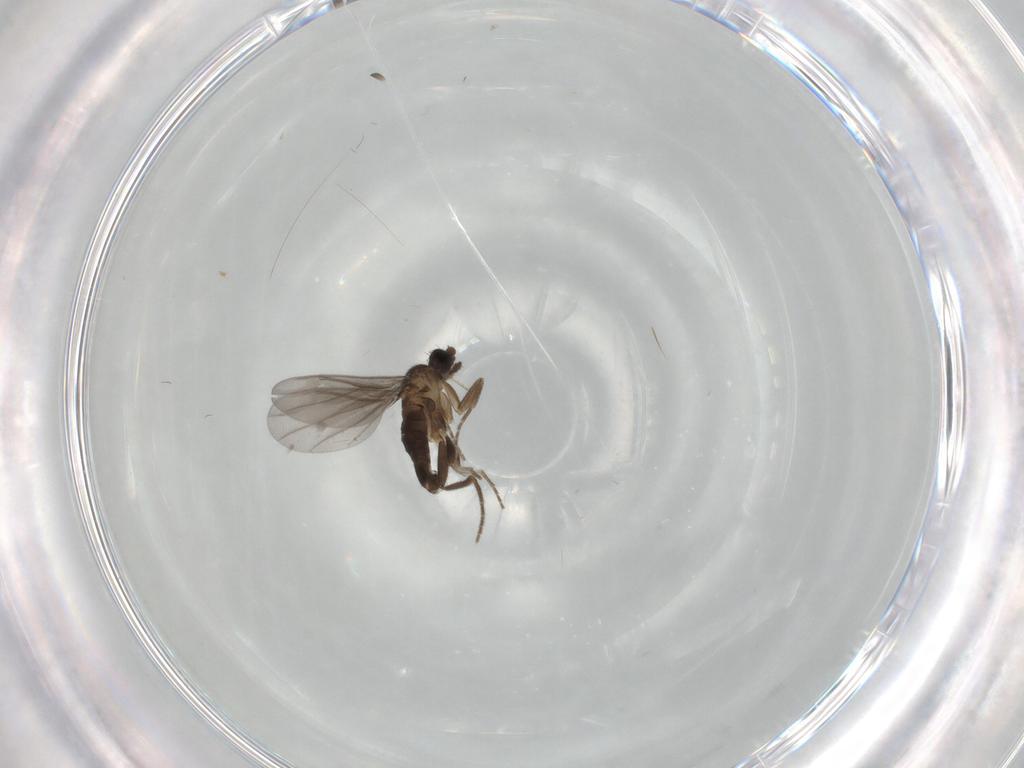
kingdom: Animalia
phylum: Arthropoda
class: Insecta
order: Diptera
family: Phoridae
